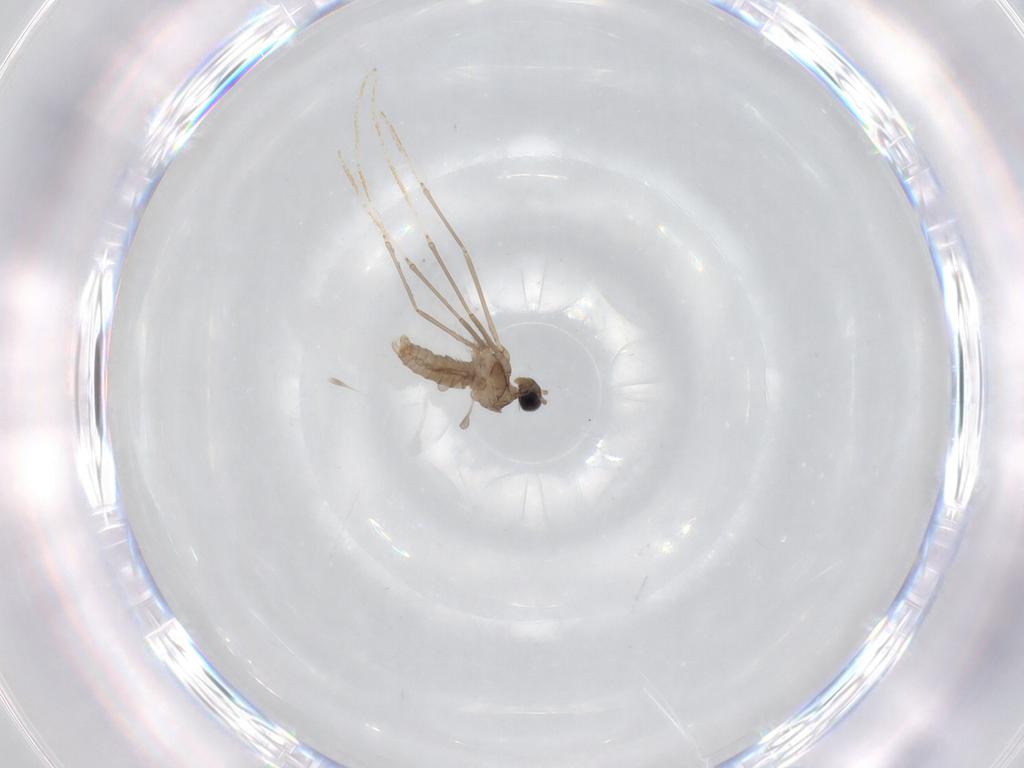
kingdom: Animalia
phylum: Arthropoda
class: Insecta
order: Diptera
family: Cecidomyiidae
